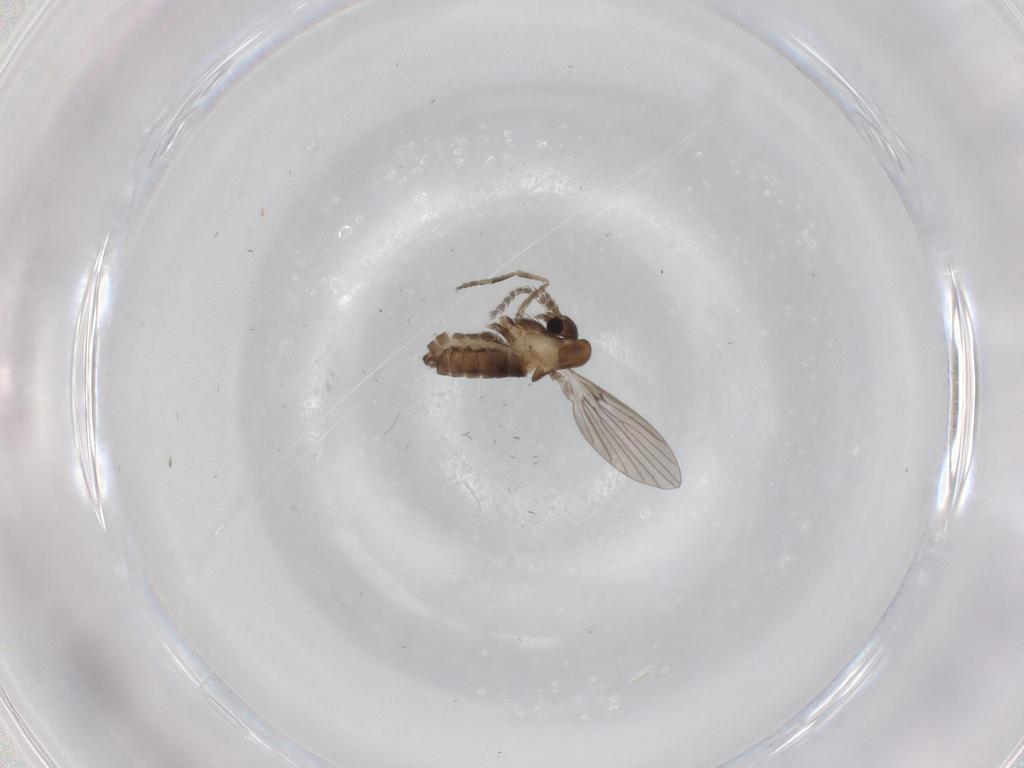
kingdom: Animalia
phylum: Arthropoda
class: Insecta
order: Diptera
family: Psychodidae
